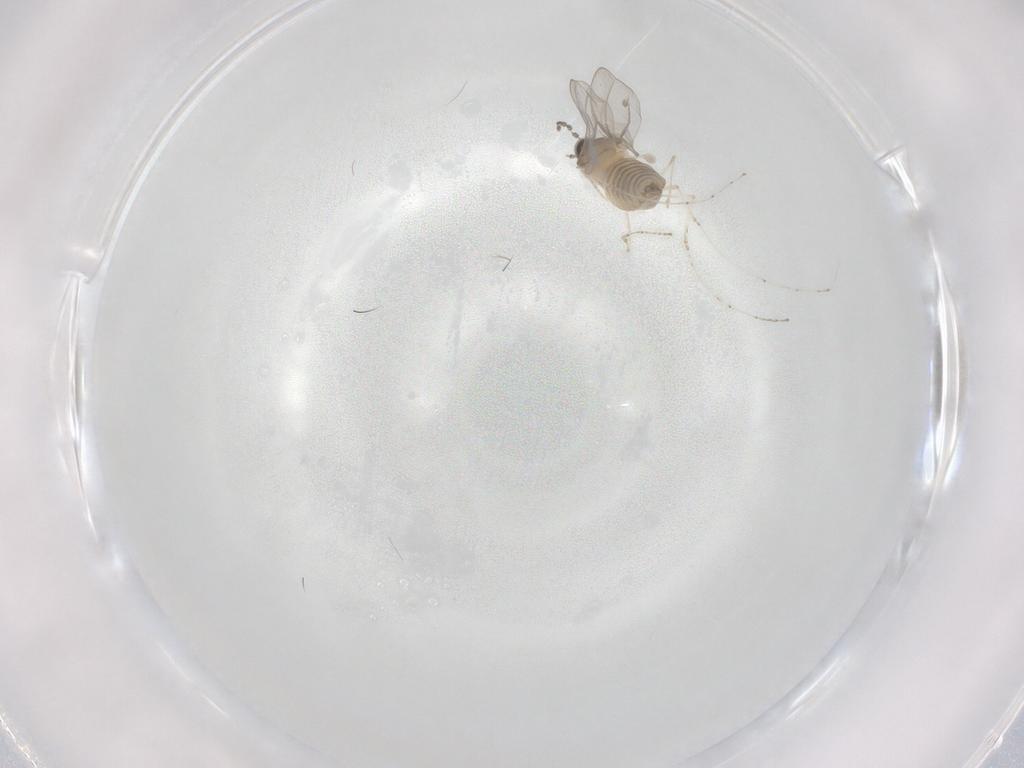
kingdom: Animalia
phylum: Arthropoda
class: Insecta
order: Diptera
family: Cecidomyiidae
